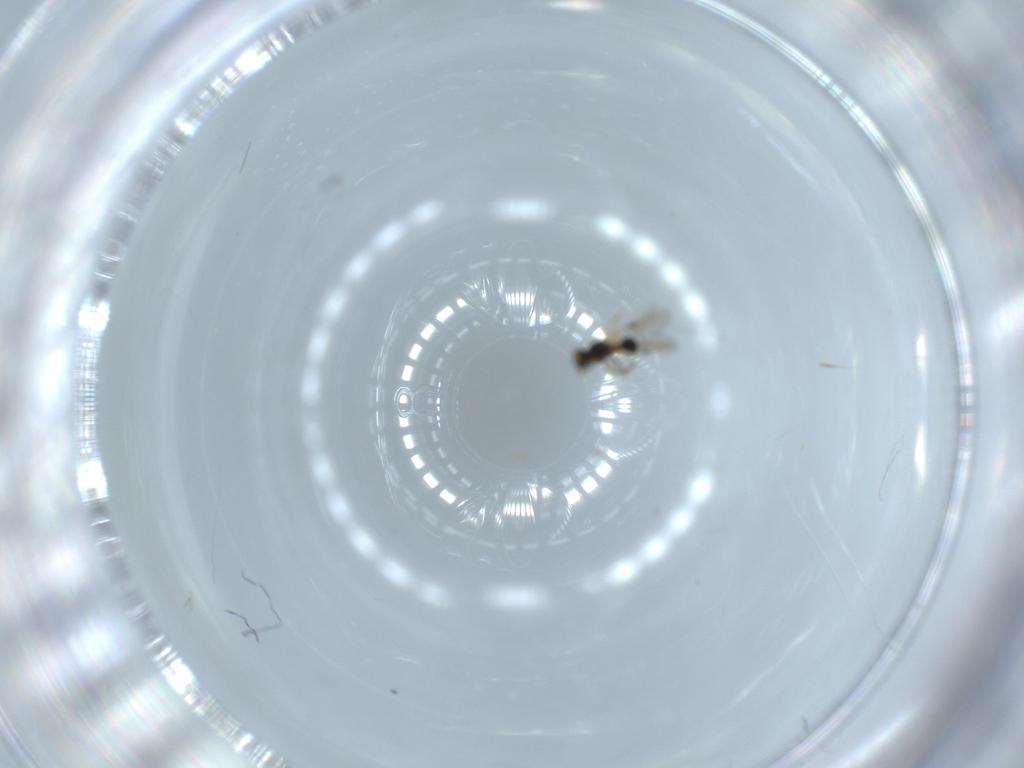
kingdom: Animalia
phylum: Arthropoda
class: Insecta
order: Hymenoptera
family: Platygastridae
